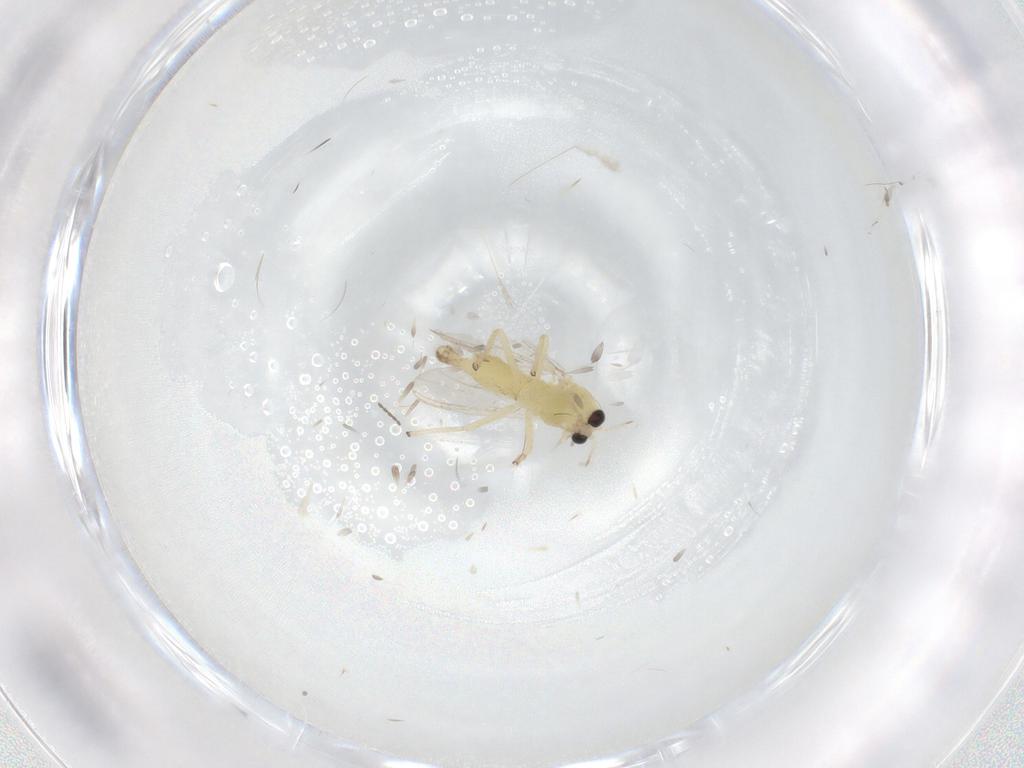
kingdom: Animalia
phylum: Arthropoda
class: Insecta
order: Diptera
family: Chironomidae
